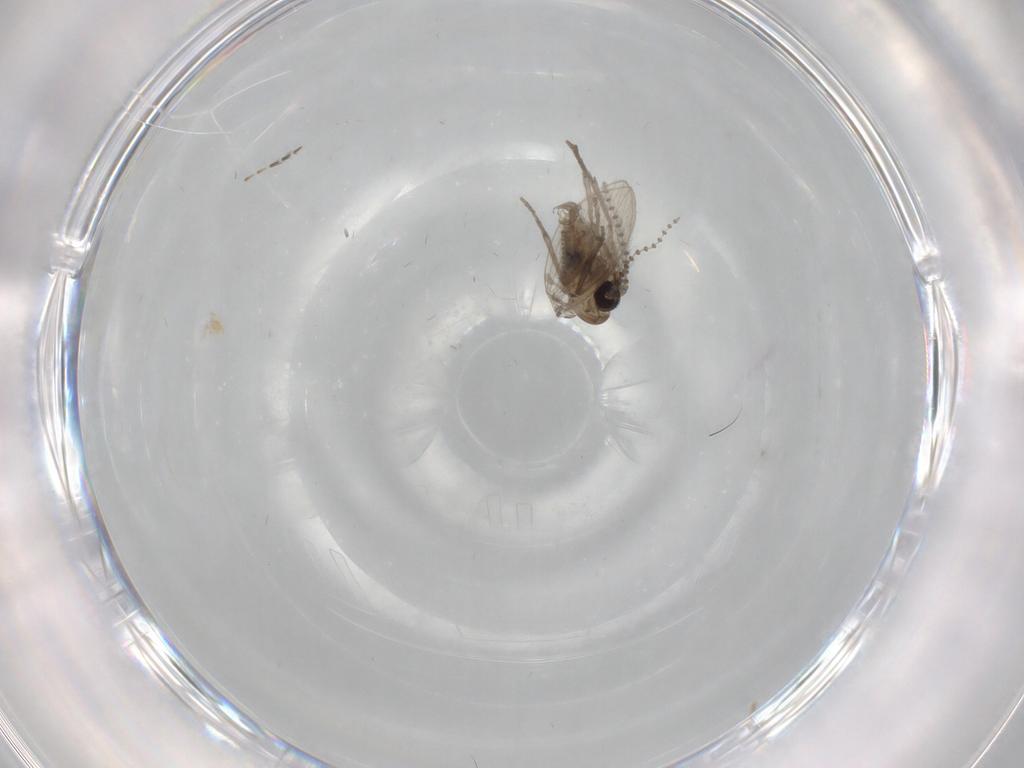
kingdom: Animalia
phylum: Arthropoda
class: Insecta
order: Diptera
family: Psychodidae
